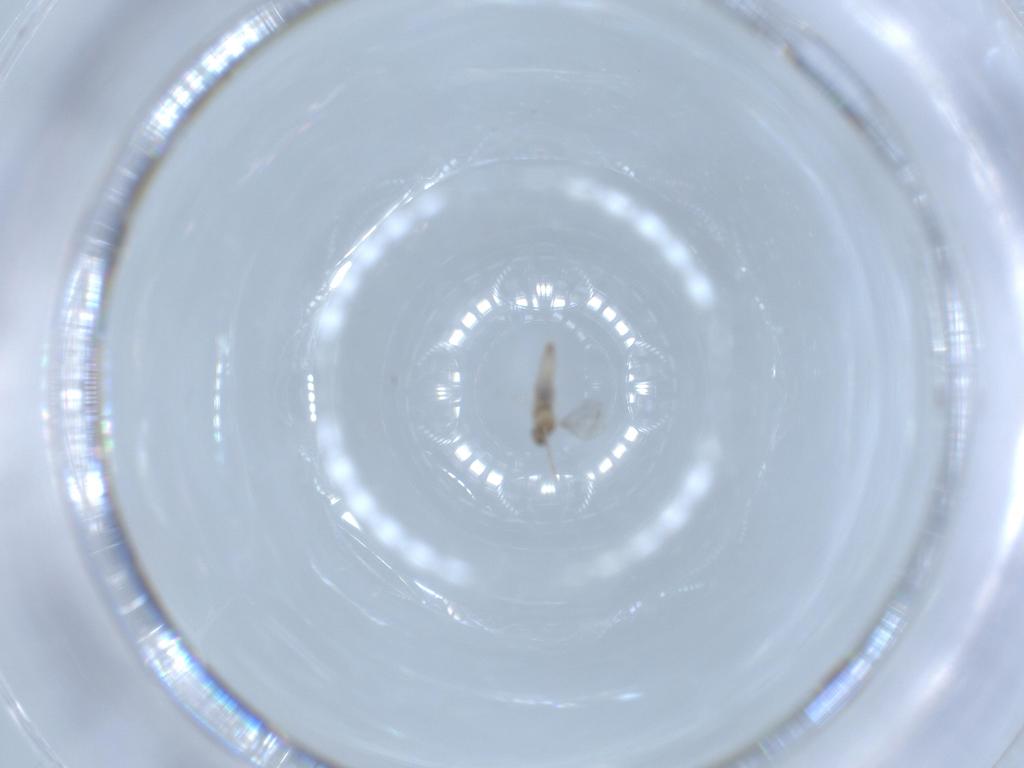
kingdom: Animalia
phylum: Arthropoda
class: Insecta
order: Diptera
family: Cecidomyiidae
